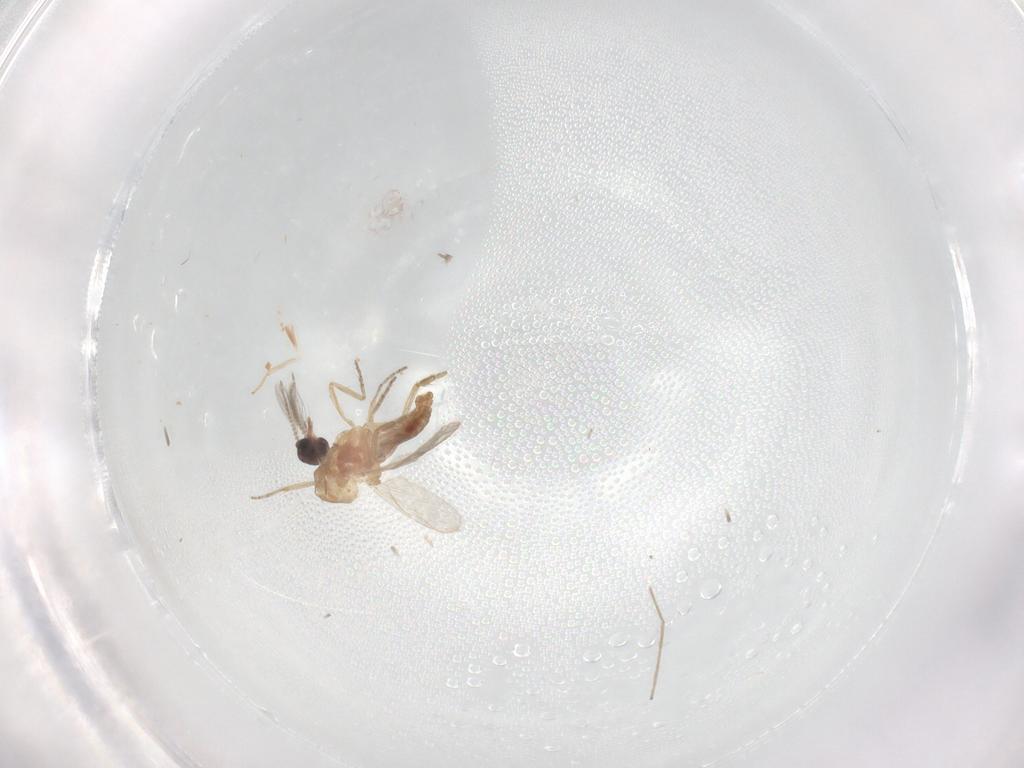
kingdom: Animalia
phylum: Arthropoda
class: Insecta
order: Diptera
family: Ceratopogonidae
